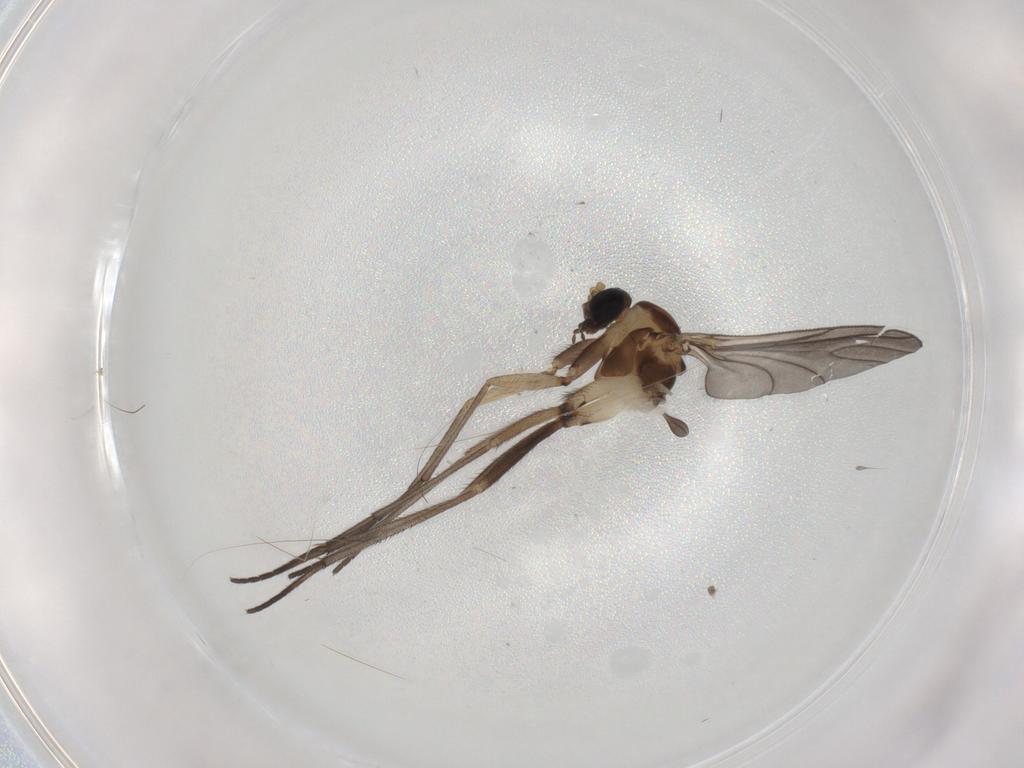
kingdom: Animalia
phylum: Arthropoda
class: Insecta
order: Diptera
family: Sciaridae
